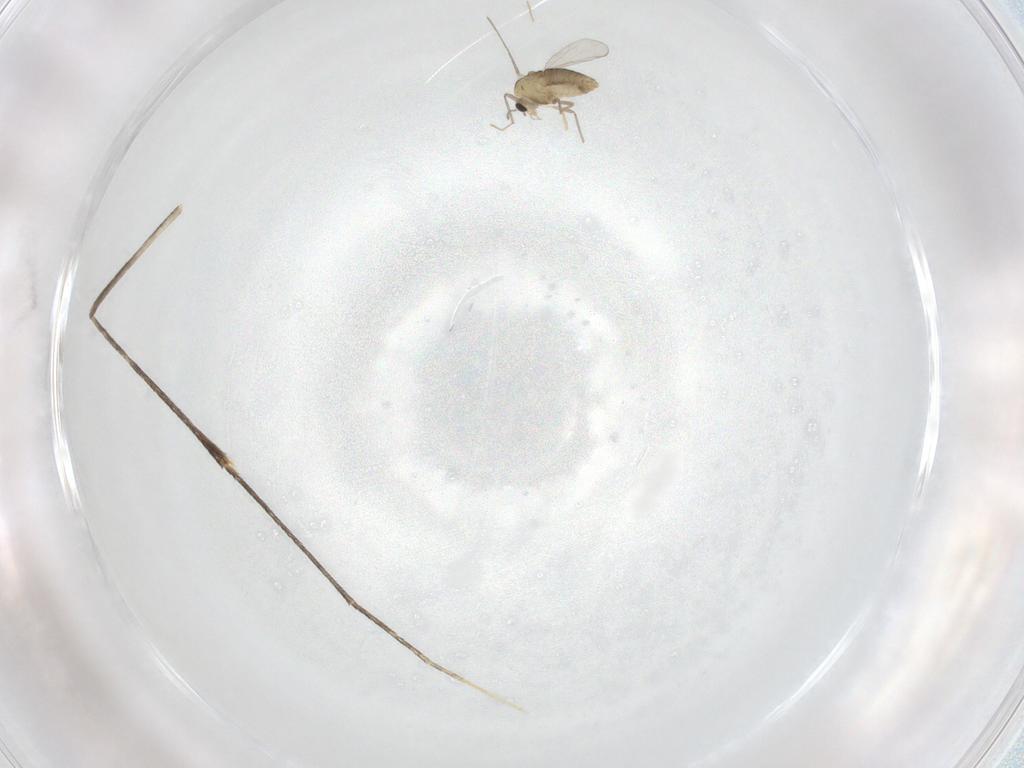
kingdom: Animalia
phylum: Arthropoda
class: Insecta
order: Diptera
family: Chironomidae
